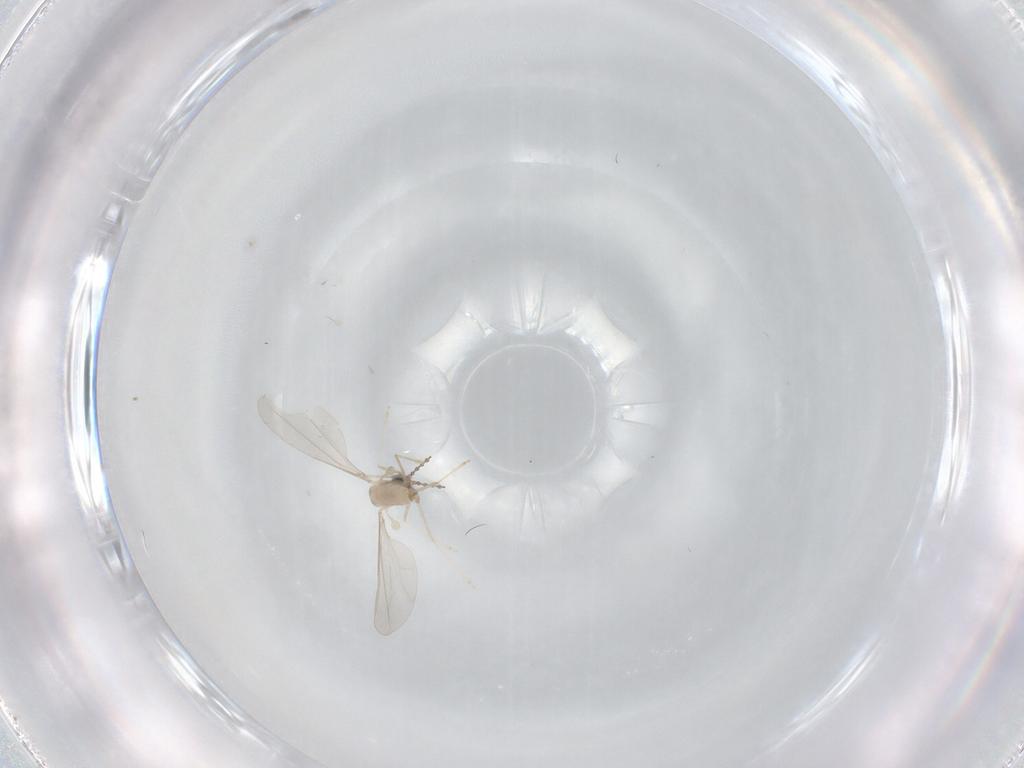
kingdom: Animalia
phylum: Arthropoda
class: Insecta
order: Diptera
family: Cecidomyiidae
